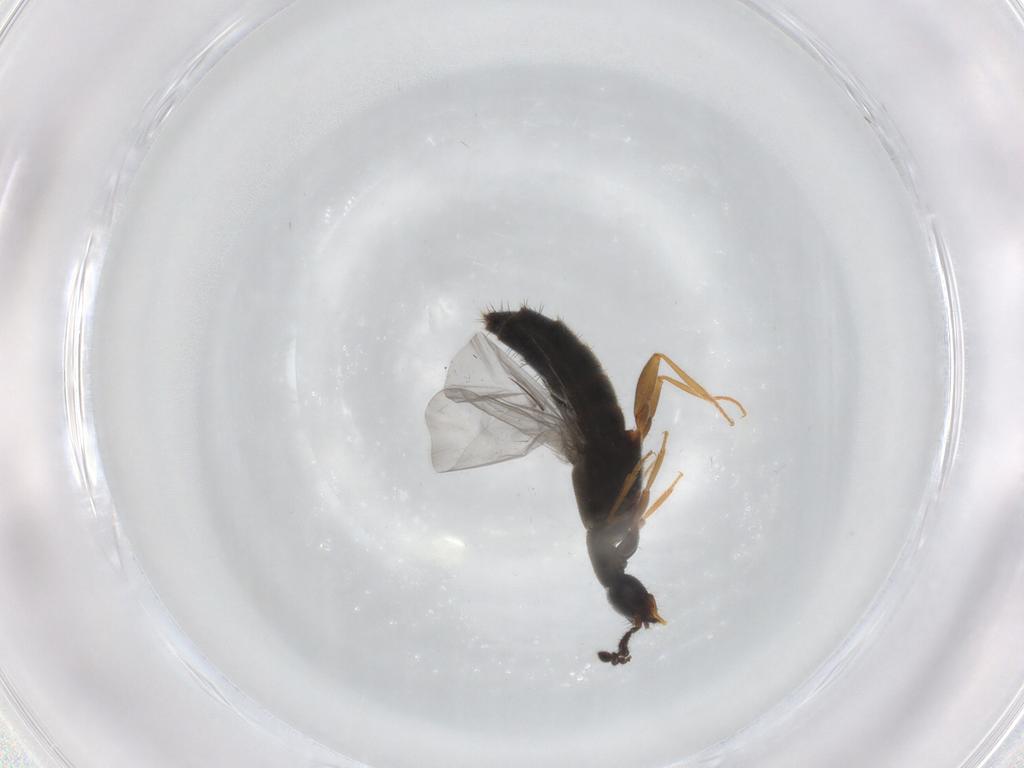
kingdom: Animalia
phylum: Arthropoda
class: Insecta
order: Coleoptera
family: Staphylinidae
